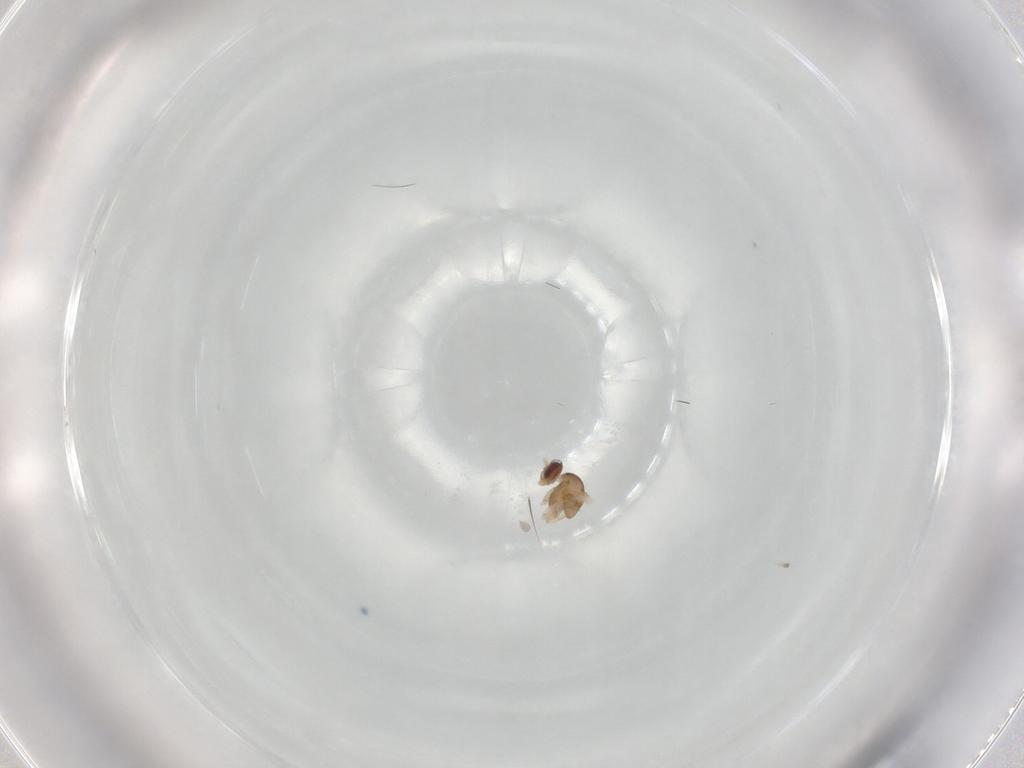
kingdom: Animalia
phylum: Arthropoda
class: Insecta
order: Diptera
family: Cecidomyiidae
